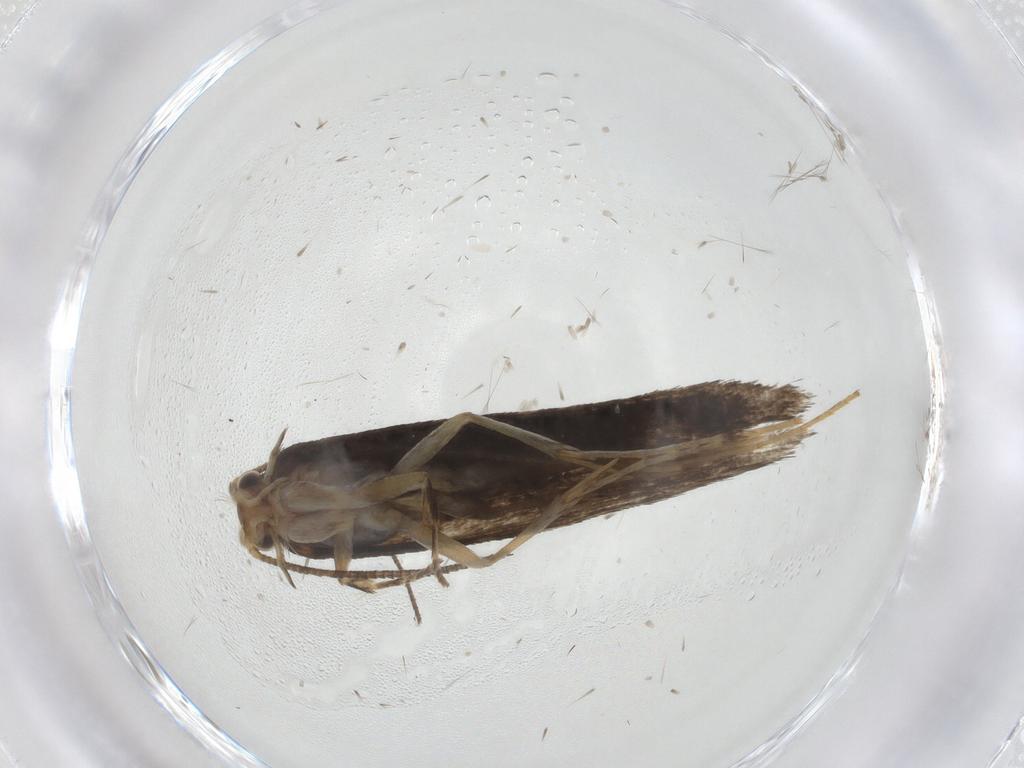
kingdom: Animalia
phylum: Arthropoda
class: Insecta
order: Lepidoptera
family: Tineidae
